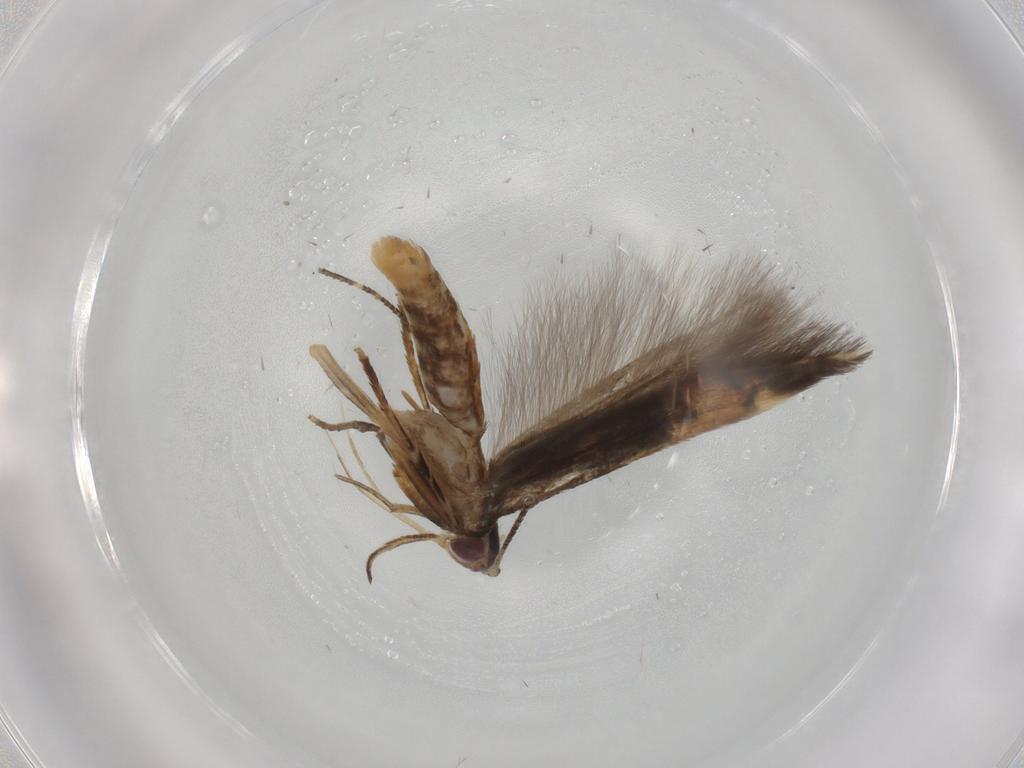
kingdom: Animalia
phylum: Arthropoda
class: Insecta
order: Lepidoptera
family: Cosmopterigidae
